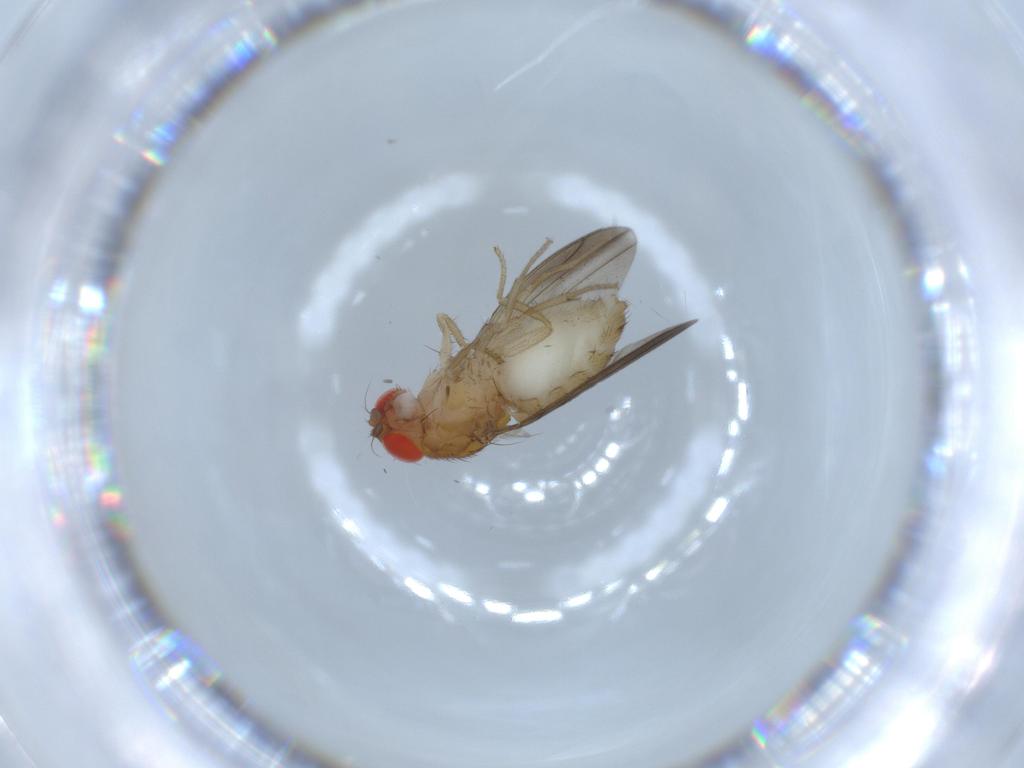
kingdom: Animalia
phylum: Arthropoda
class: Insecta
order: Diptera
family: Drosophilidae
